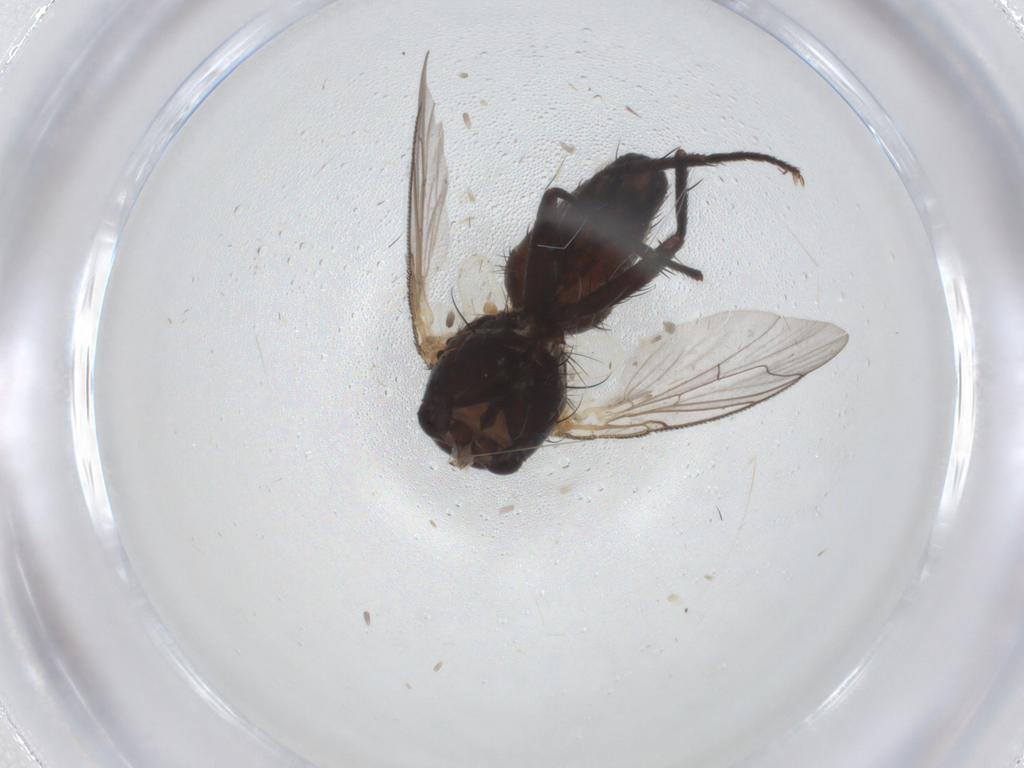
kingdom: Animalia
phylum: Arthropoda
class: Insecta
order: Diptera
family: Sarcophagidae
